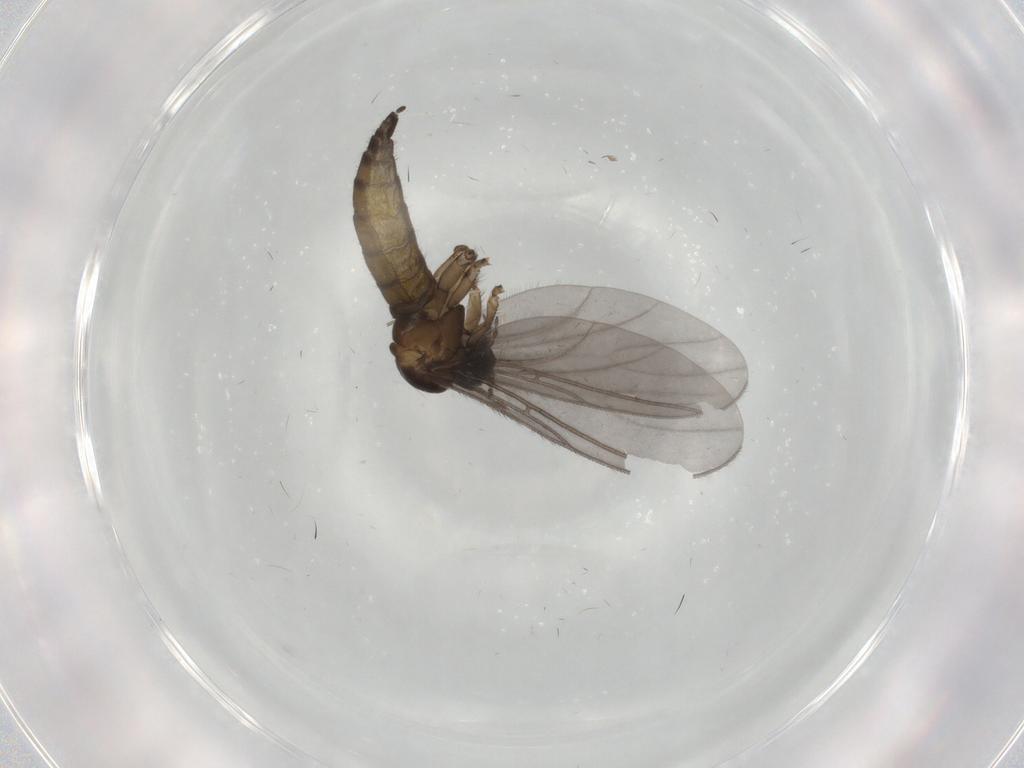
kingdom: Animalia
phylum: Arthropoda
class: Insecta
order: Diptera
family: Sciaridae
